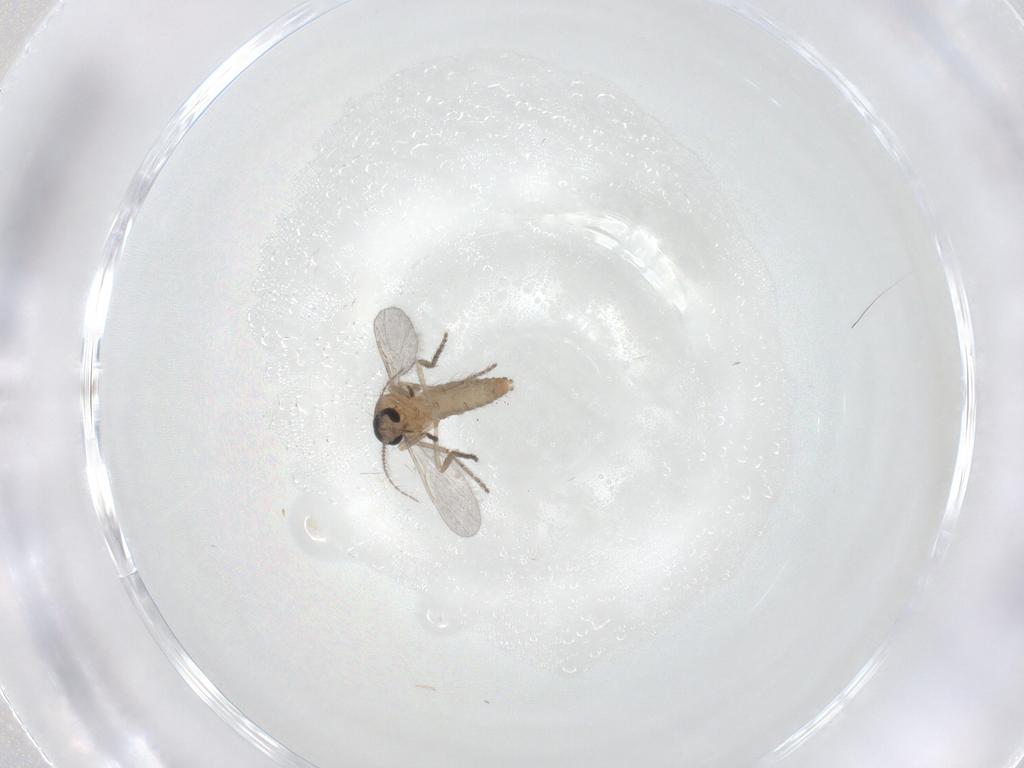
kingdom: Animalia
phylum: Arthropoda
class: Insecta
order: Diptera
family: Ceratopogonidae
